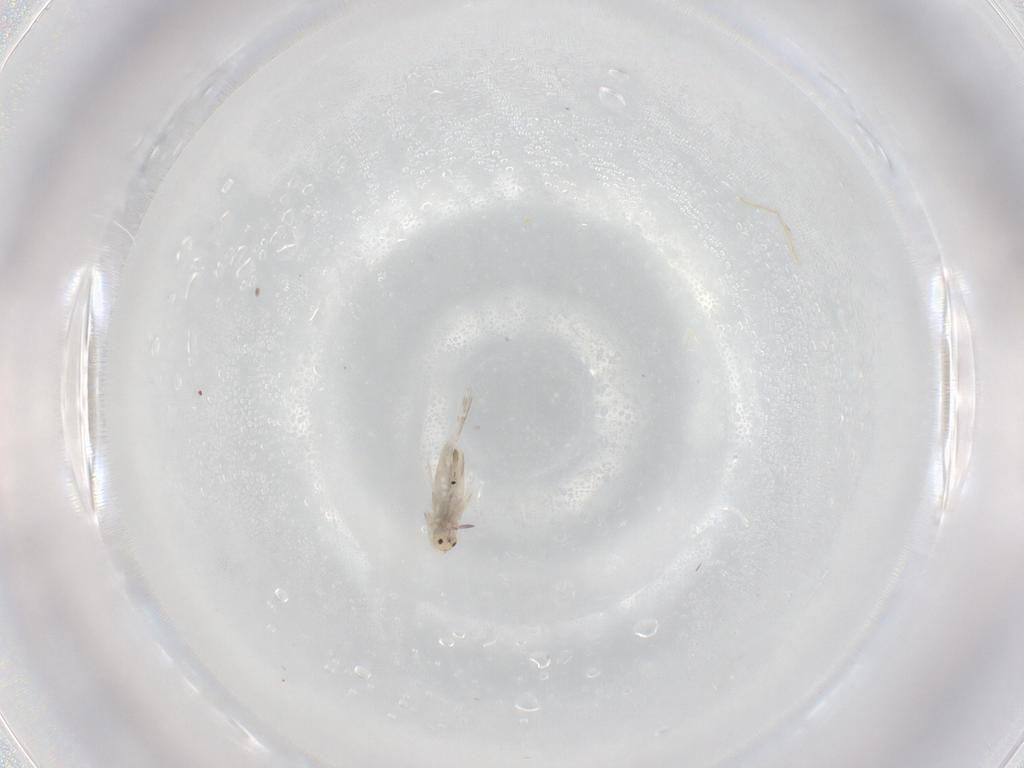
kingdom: Animalia
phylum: Arthropoda
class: Collembola
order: Entomobryomorpha
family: Entomobryidae
